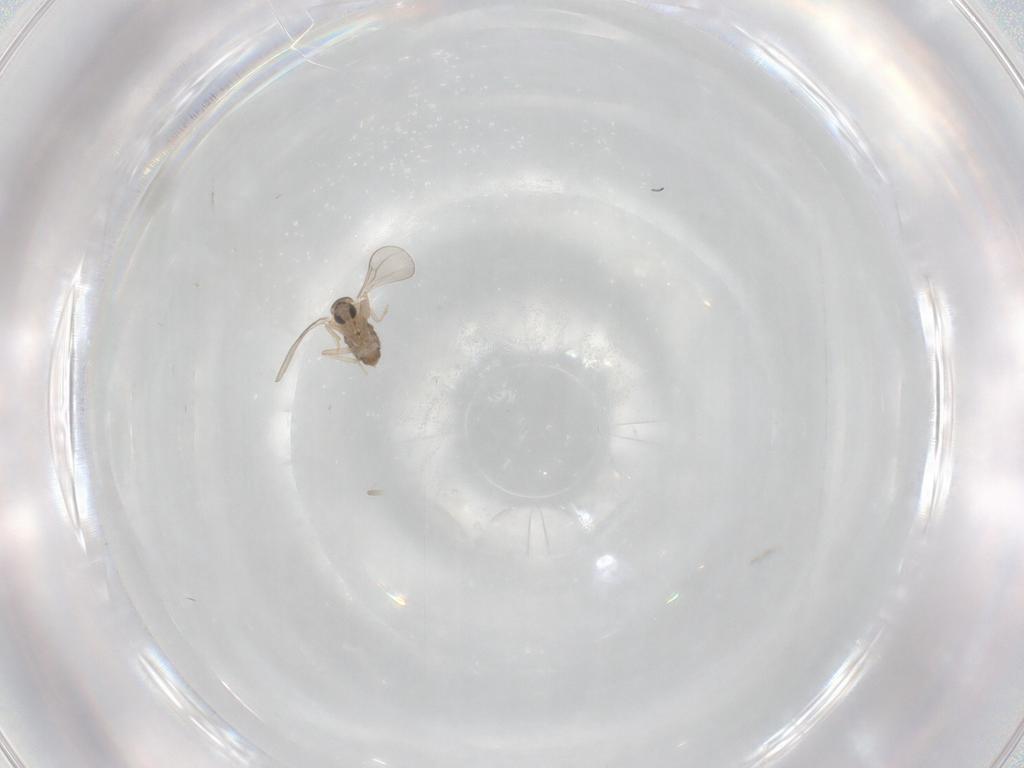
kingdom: Animalia
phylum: Arthropoda
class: Insecta
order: Diptera
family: Cecidomyiidae
